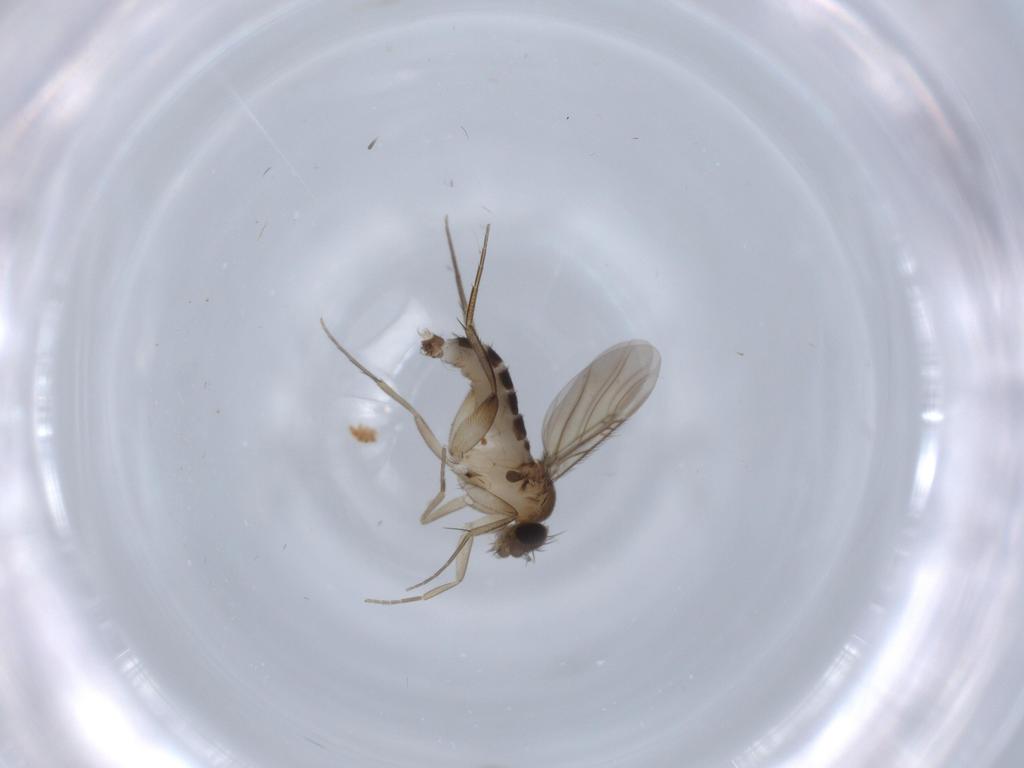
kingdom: Animalia
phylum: Arthropoda
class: Insecta
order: Diptera
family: Phoridae
